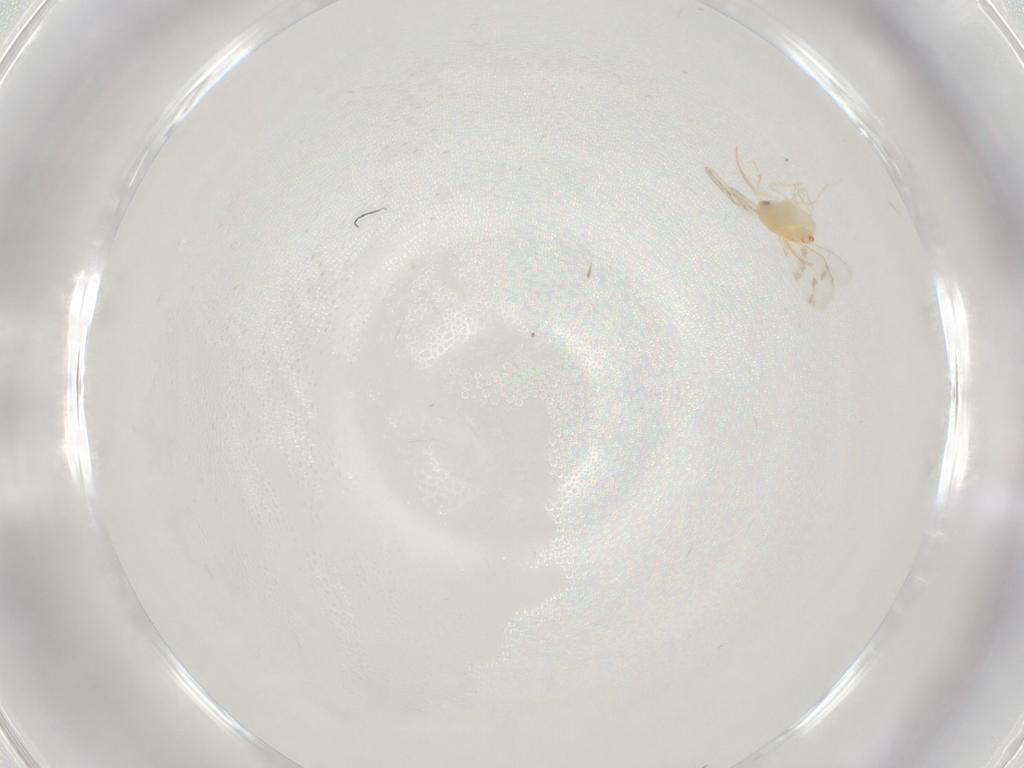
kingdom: Animalia
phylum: Arthropoda
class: Insecta
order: Hemiptera
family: Aleyrodidae
